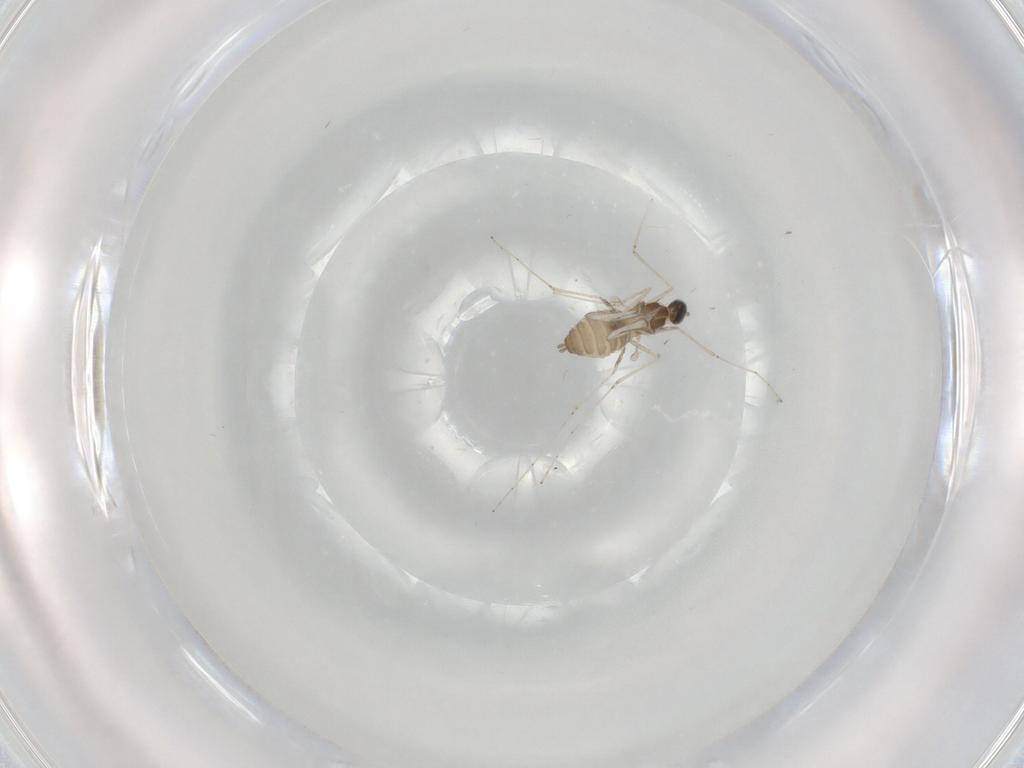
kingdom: Animalia
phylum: Arthropoda
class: Insecta
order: Diptera
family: Cecidomyiidae
